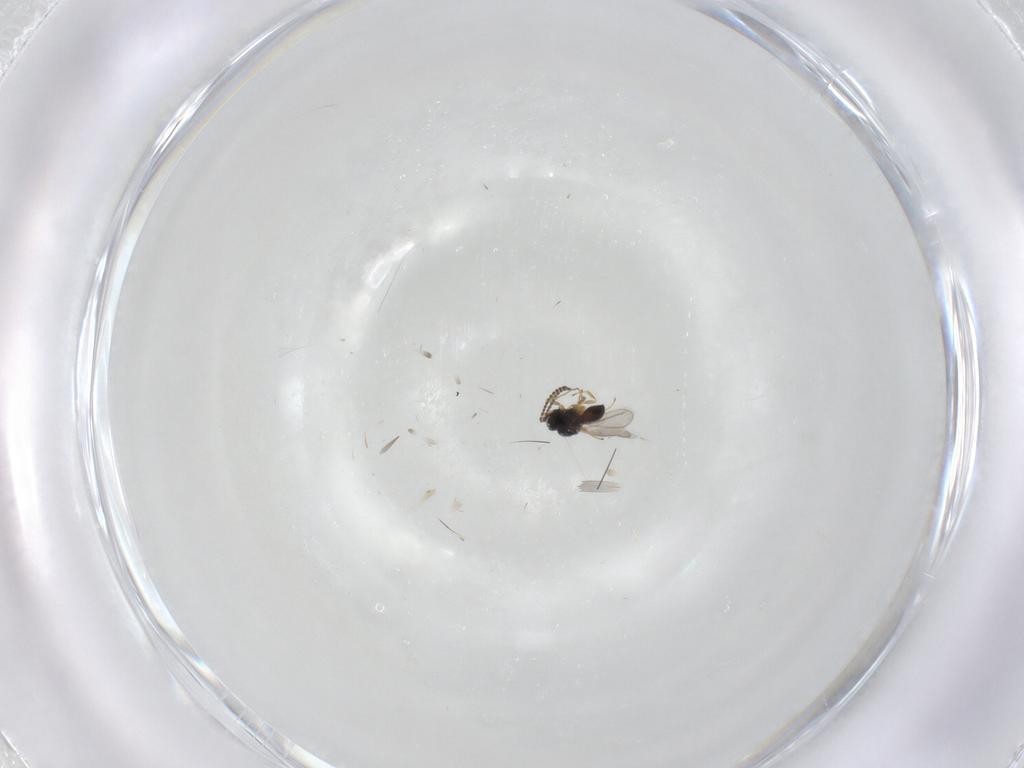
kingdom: Animalia
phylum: Arthropoda
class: Insecta
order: Hymenoptera
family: Scelionidae
